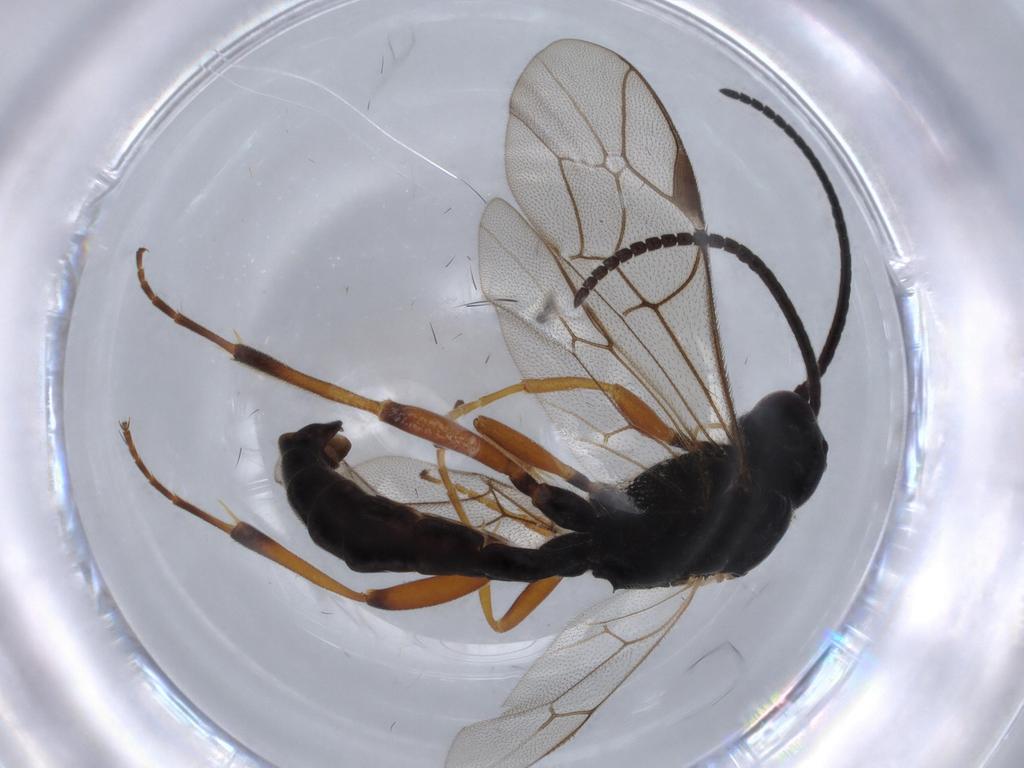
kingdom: Animalia
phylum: Arthropoda
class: Insecta
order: Hymenoptera
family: Ichneumonidae
